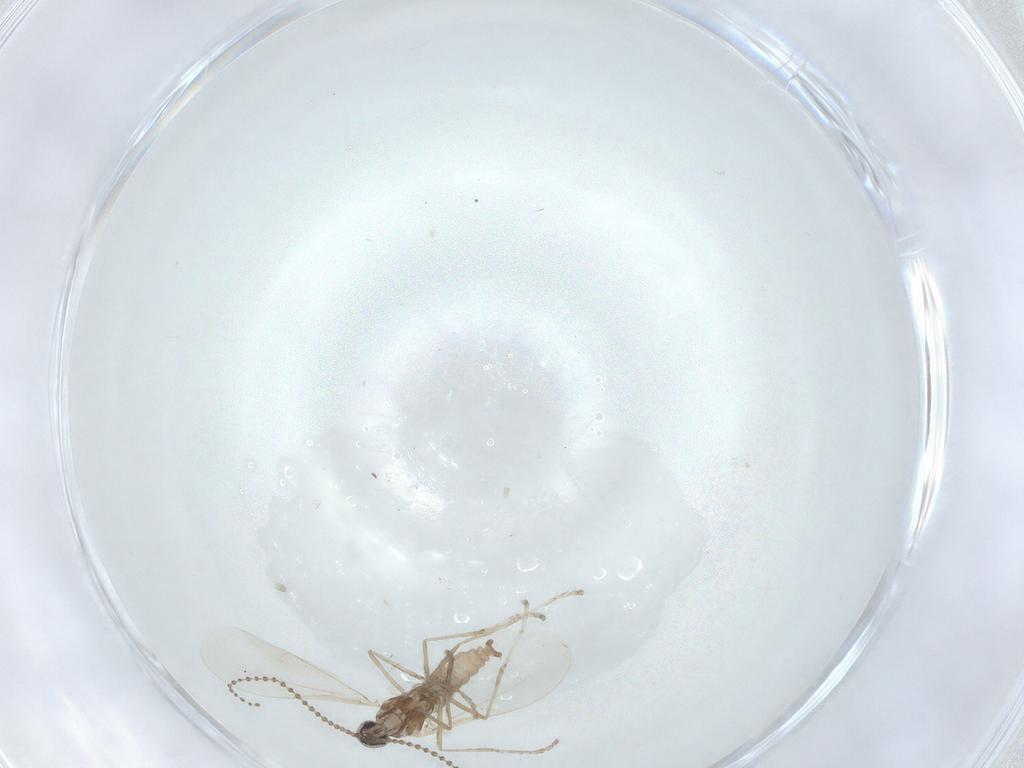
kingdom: Animalia
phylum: Arthropoda
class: Insecta
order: Diptera
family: Cecidomyiidae
